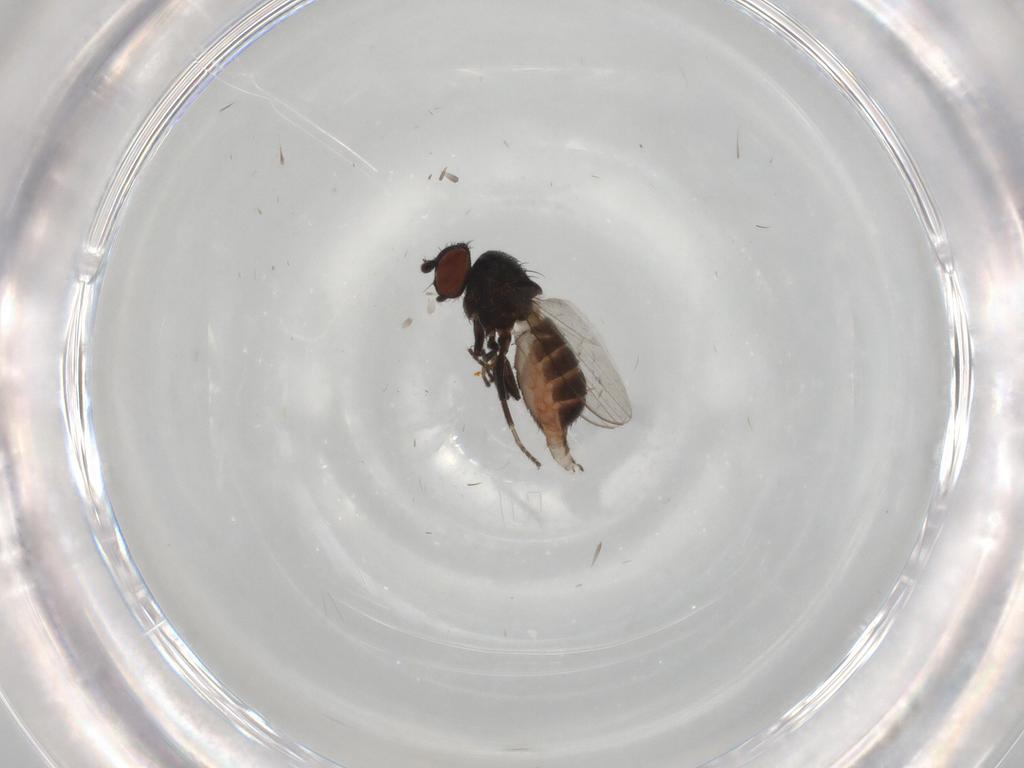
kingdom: Animalia
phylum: Arthropoda
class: Insecta
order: Diptera
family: Milichiidae
